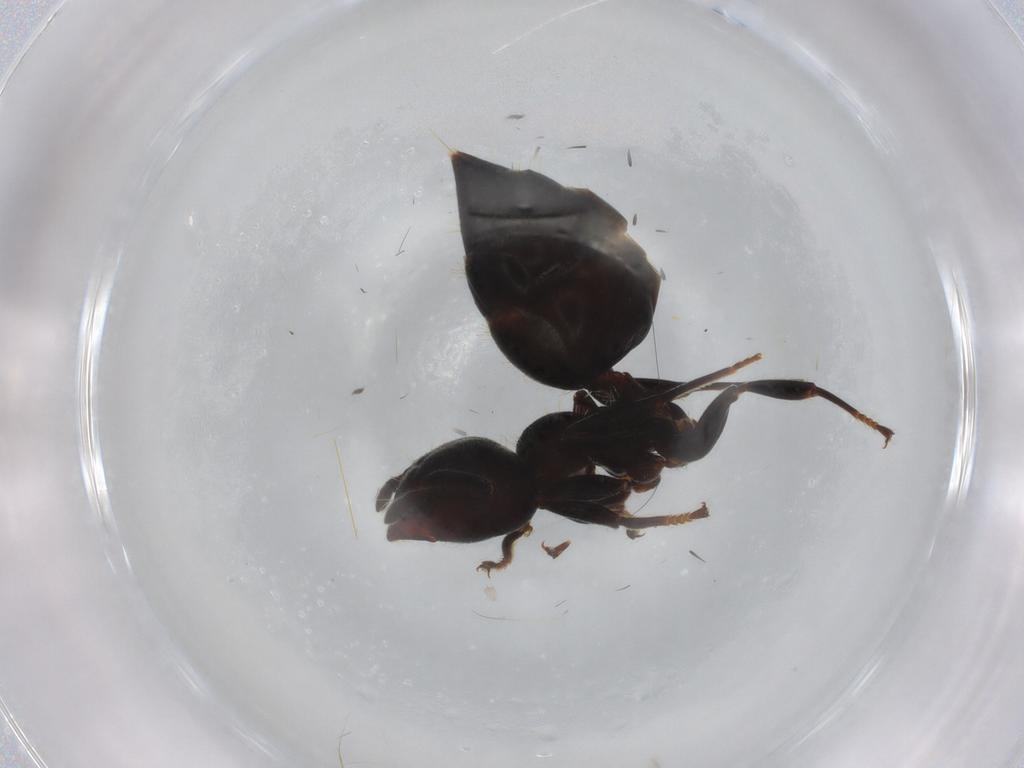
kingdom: Animalia
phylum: Arthropoda
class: Insecta
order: Hymenoptera
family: Formicidae
